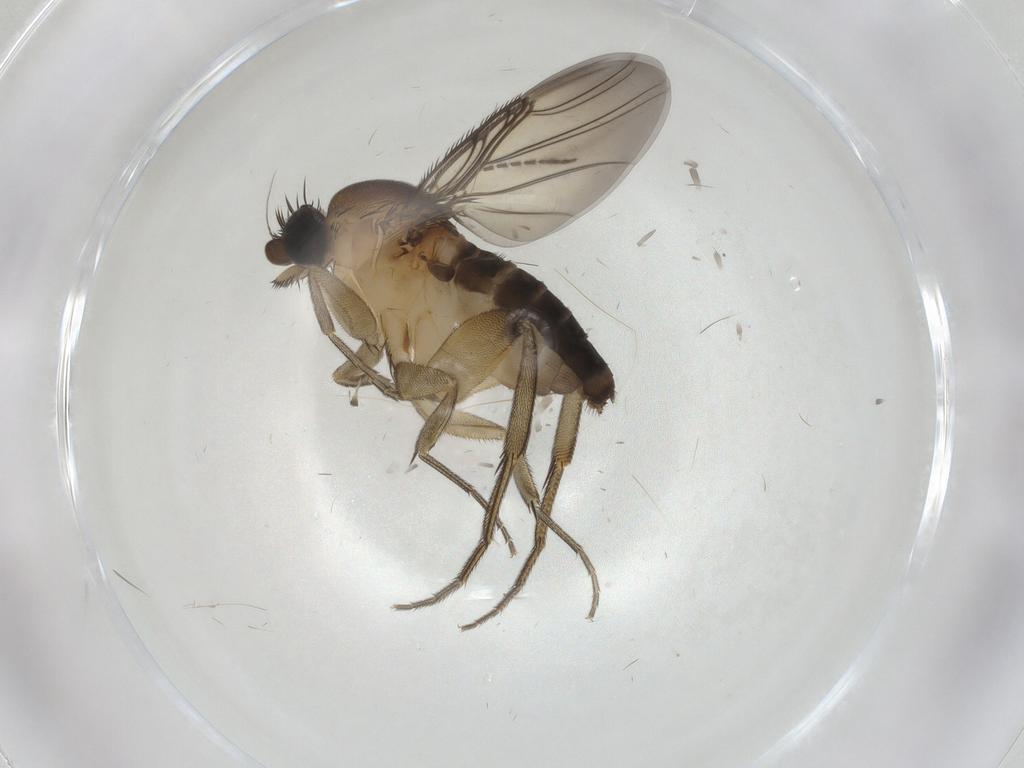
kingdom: Animalia
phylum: Arthropoda
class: Insecta
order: Diptera
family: Phoridae
